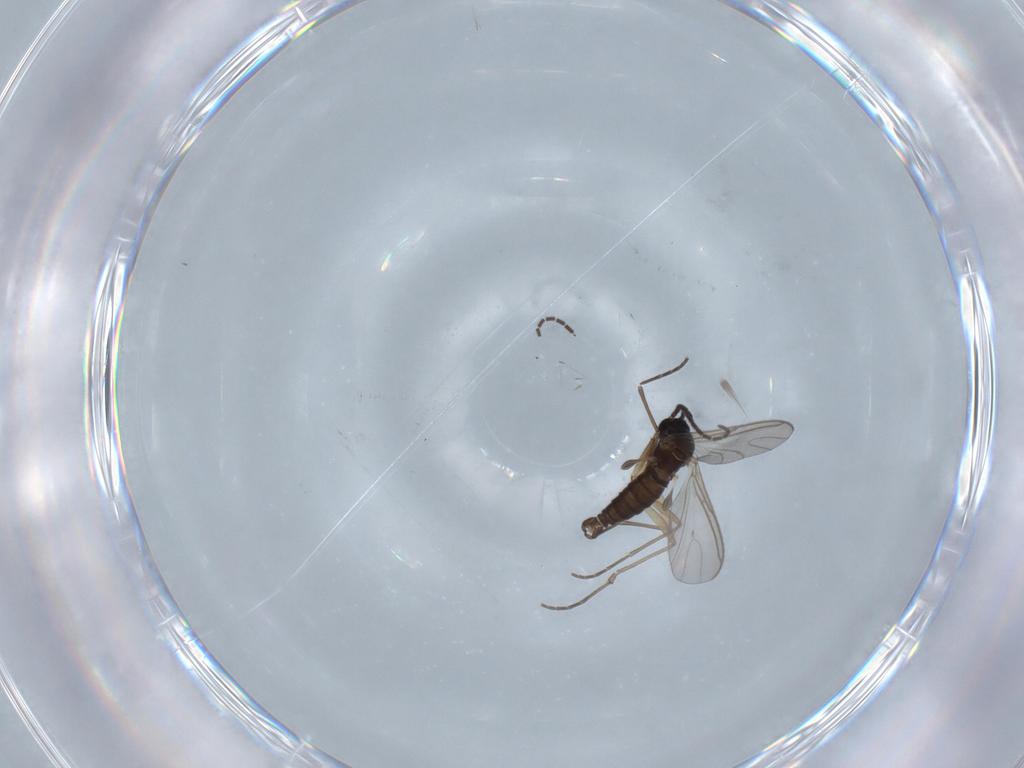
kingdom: Animalia
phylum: Arthropoda
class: Insecta
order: Diptera
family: Sciaridae
